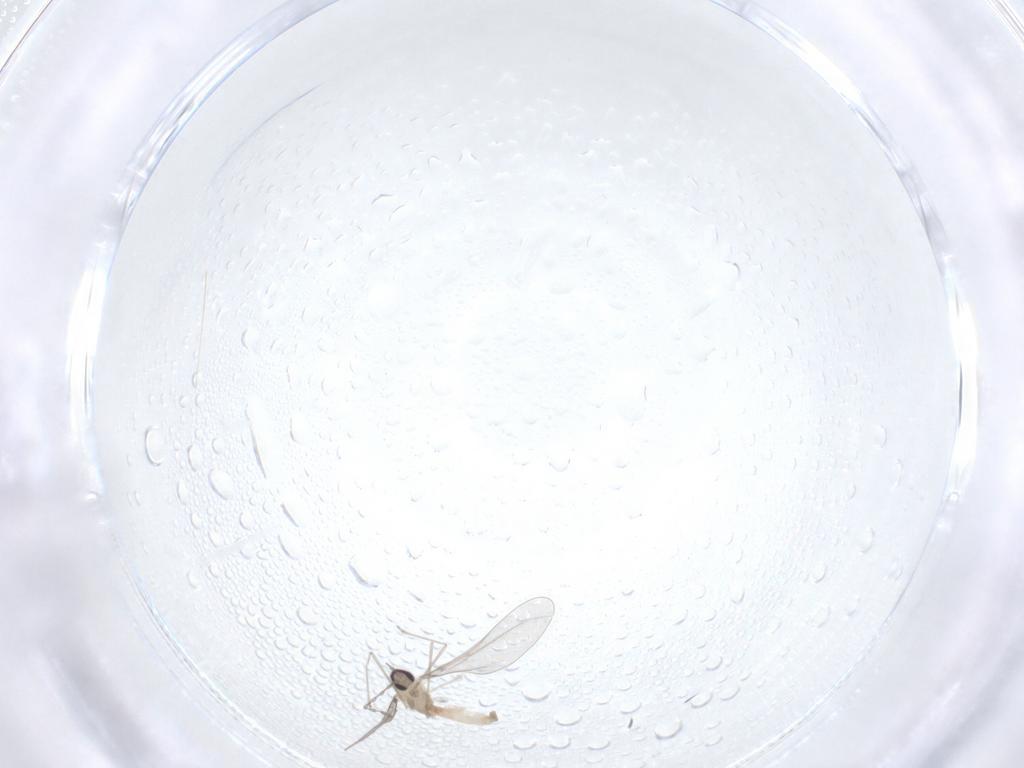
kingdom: Animalia
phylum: Arthropoda
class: Insecta
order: Diptera
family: Cecidomyiidae
